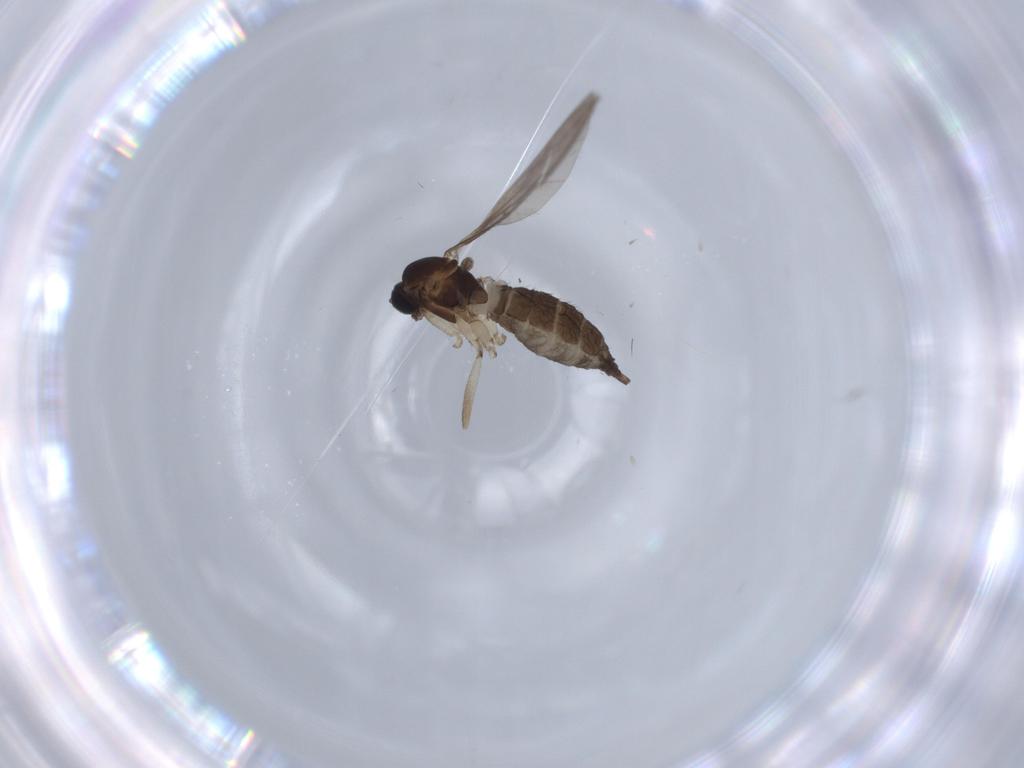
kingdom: Animalia
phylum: Arthropoda
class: Insecta
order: Diptera
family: Sciaridae
